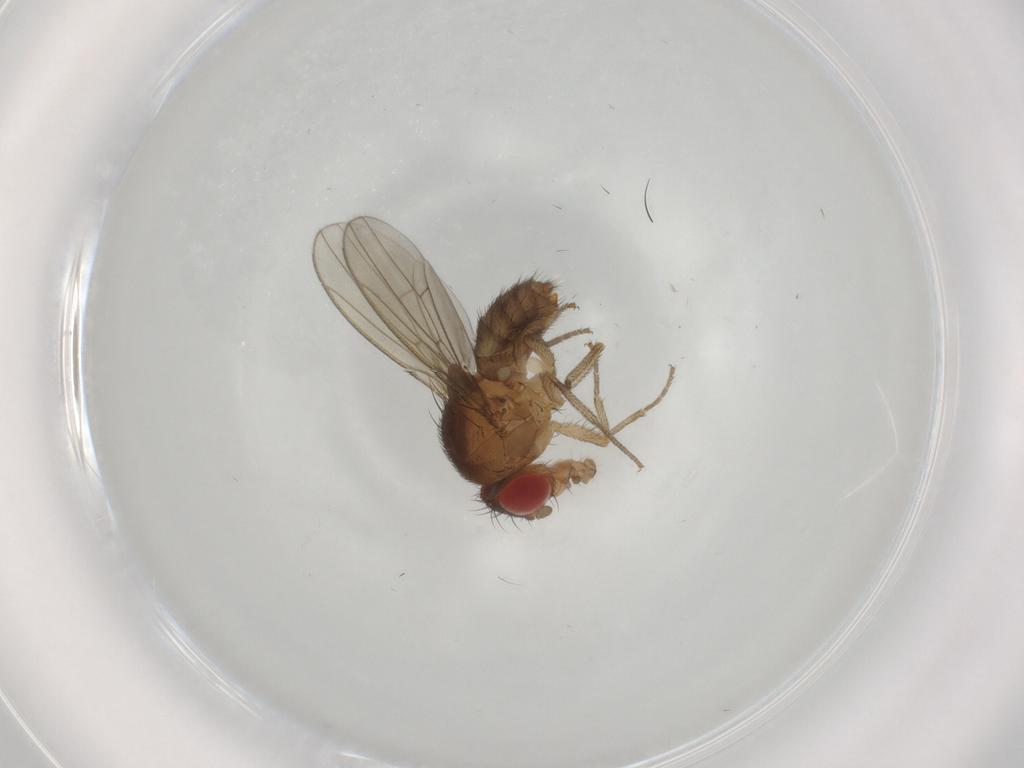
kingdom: Animalia
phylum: Arthropoda
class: Insecta
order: Diptera
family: Drosophilidae
